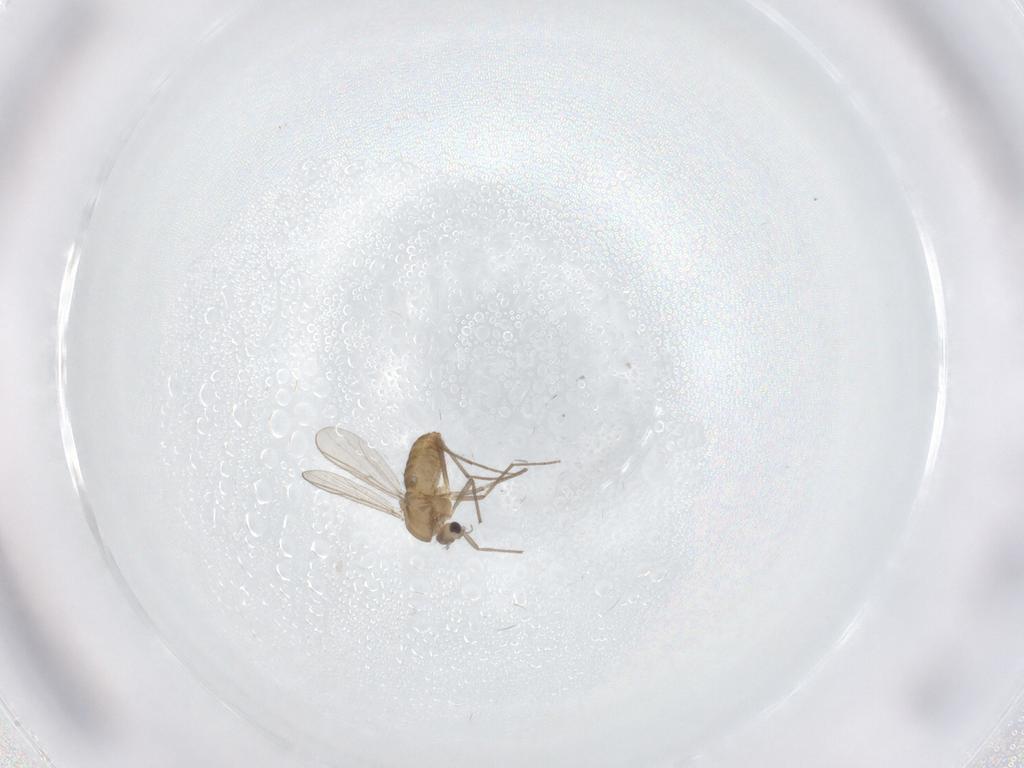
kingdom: Animalia
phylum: Arthropoda
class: Insecta
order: Diptera
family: Chironomidae
